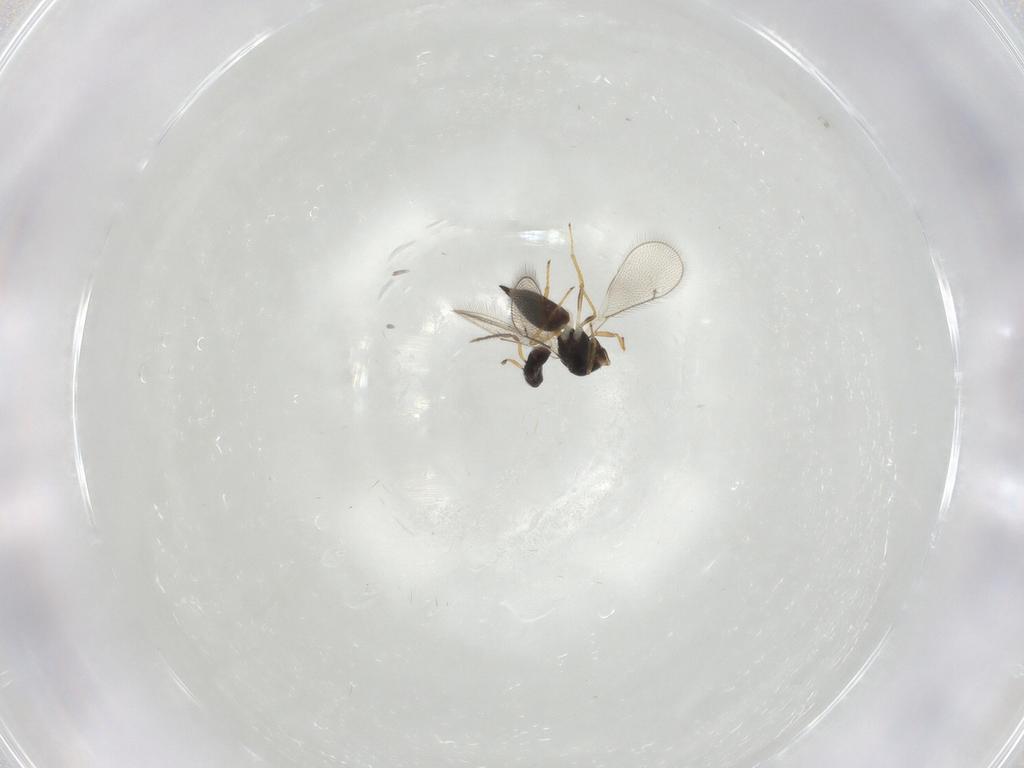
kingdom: Animalia
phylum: Arthropoda
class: Insecta
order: Hymenoptera
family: Eulophidae
